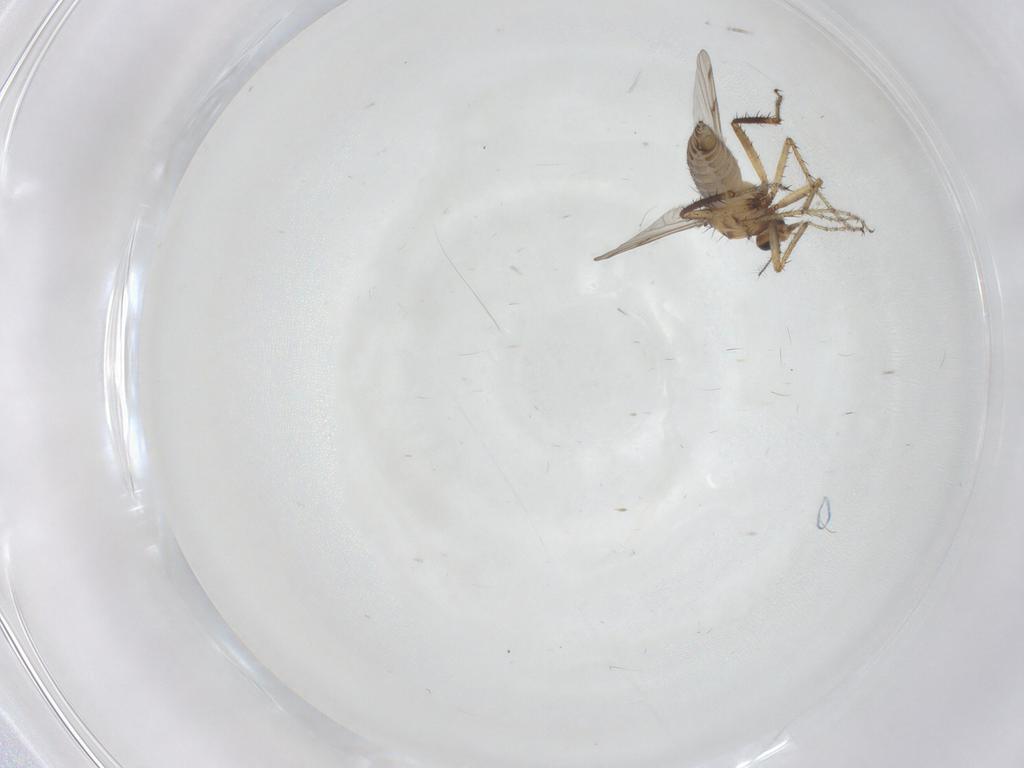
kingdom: Animalia
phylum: Arthropoda
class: Insecta
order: Diptera
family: Ceratopogonidae
